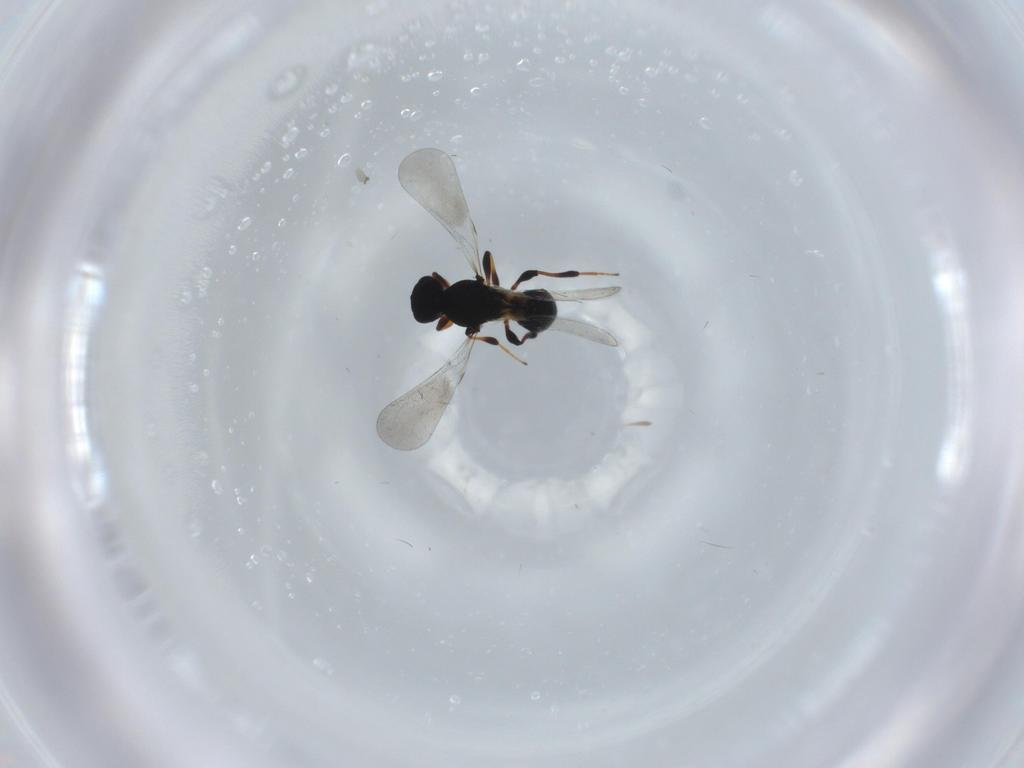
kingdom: Animalia
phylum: Arthropoda
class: Insecta
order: Hymenoptera
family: Platygastridae
